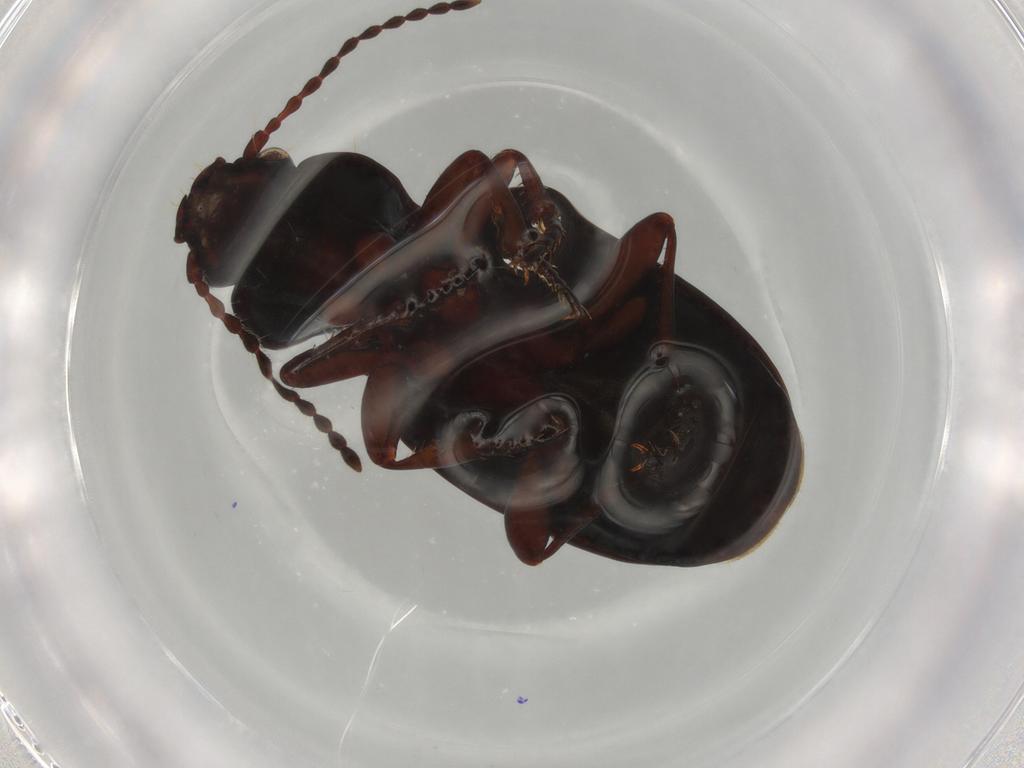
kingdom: Animalia
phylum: Arthropoda
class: Insecta
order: Coleoptera
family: Carabidae
